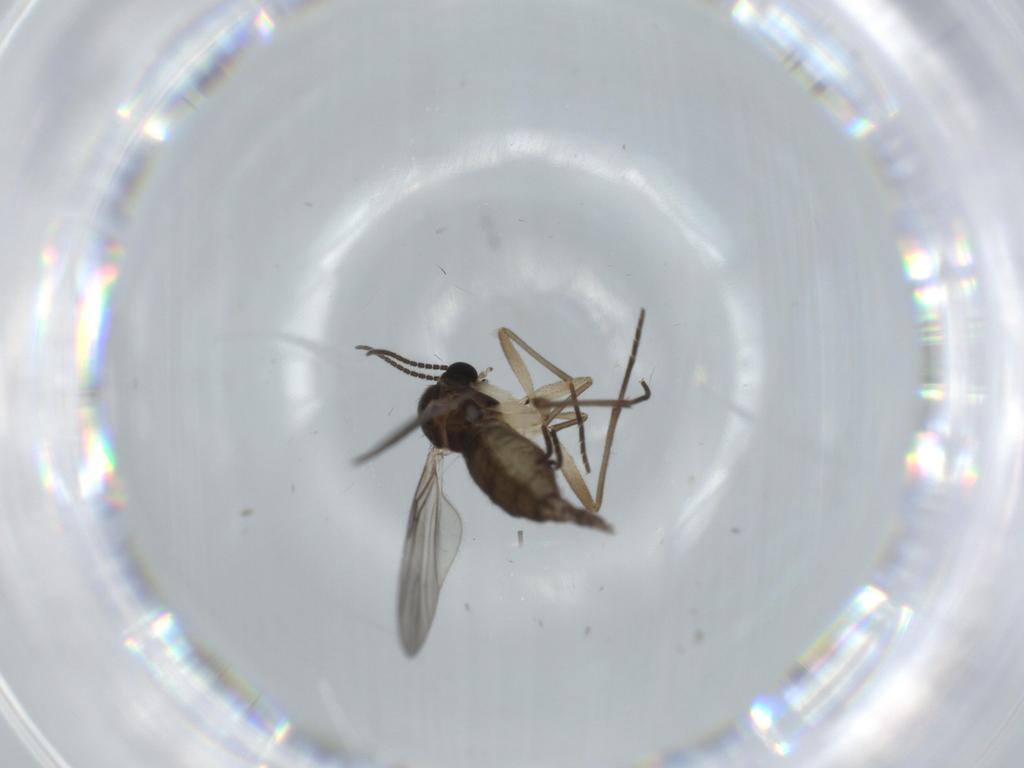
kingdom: Animalia
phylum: Arthropoda
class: Insecta
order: Diptera
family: Sciaridae
